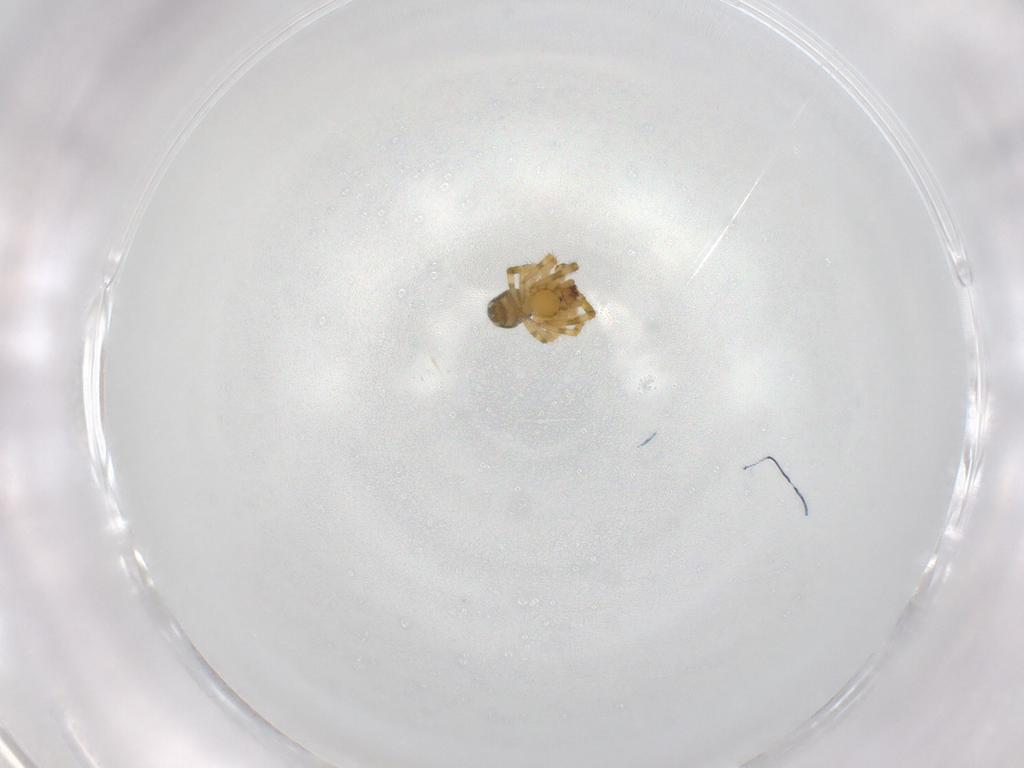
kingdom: Animalia
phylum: Arthropoda
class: Arachnida
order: Araneae
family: Theridiidae
